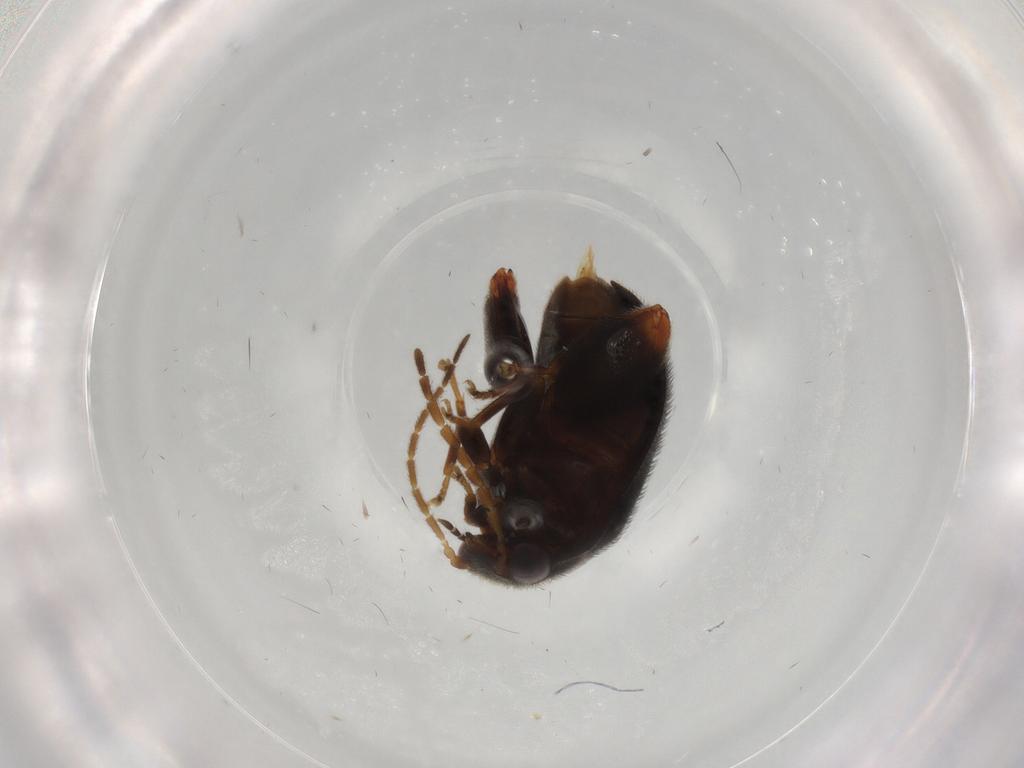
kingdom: Animalia
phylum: Arthropoda
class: Insecta
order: Coleoptera
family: Scirtidae
